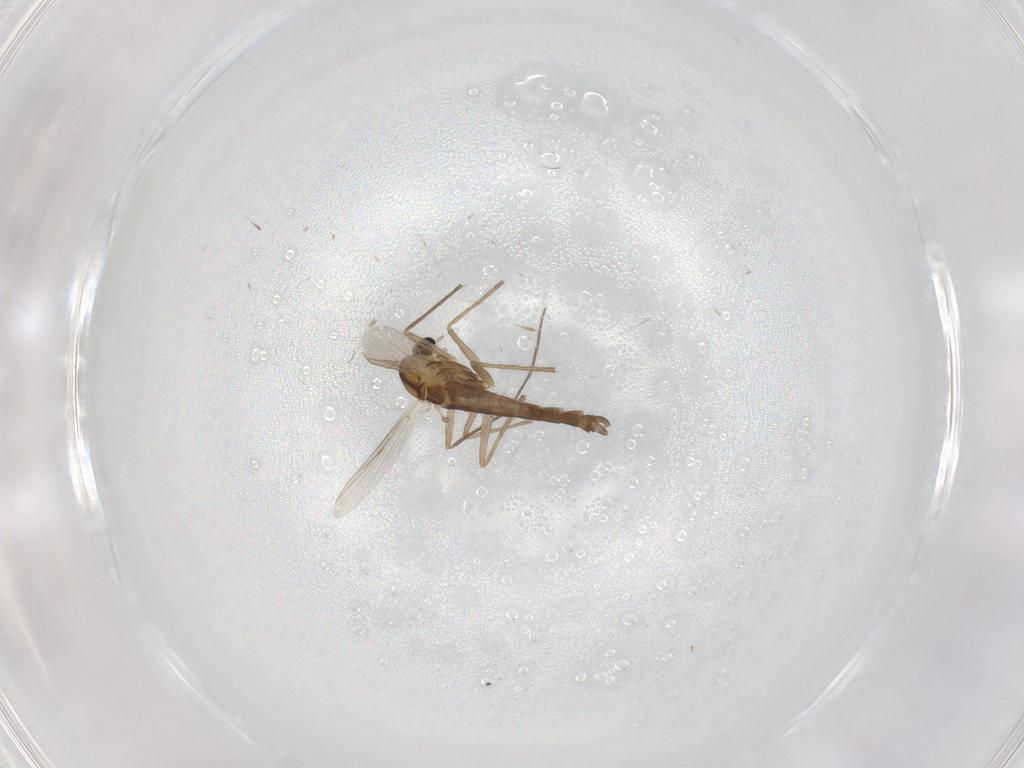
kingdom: Animalia
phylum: Arthropoda
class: Insecta
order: Diptera
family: Chironomidae
